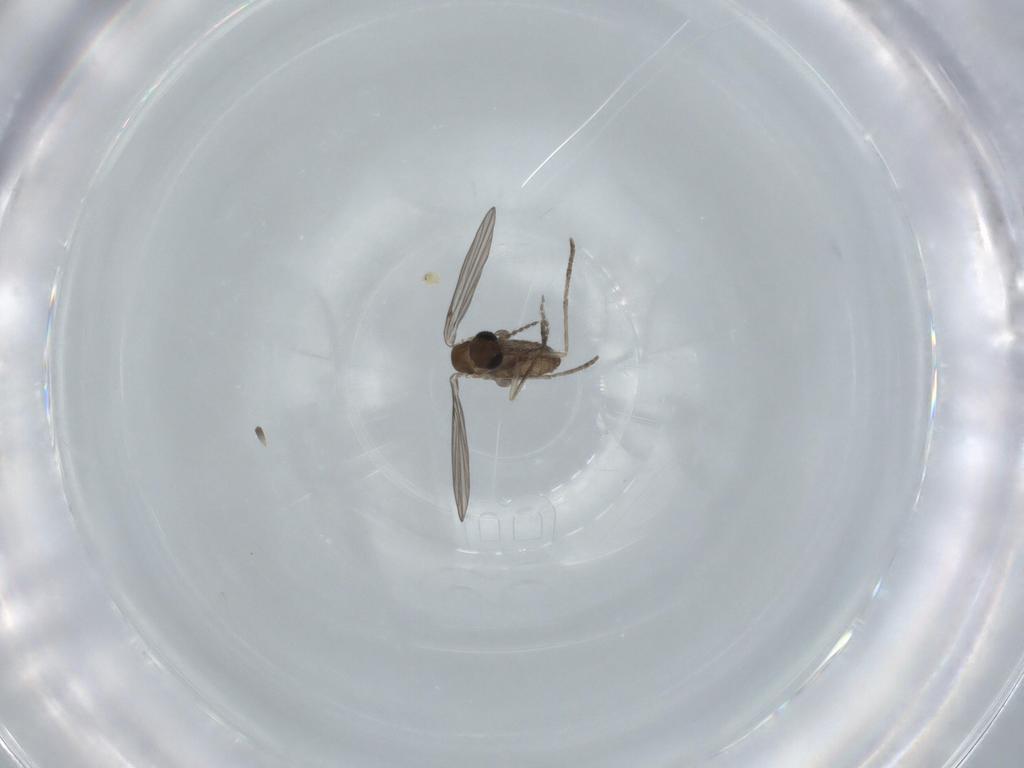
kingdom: Animalia
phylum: Arthropoda
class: Insecta
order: Diptera
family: Psychodidae
